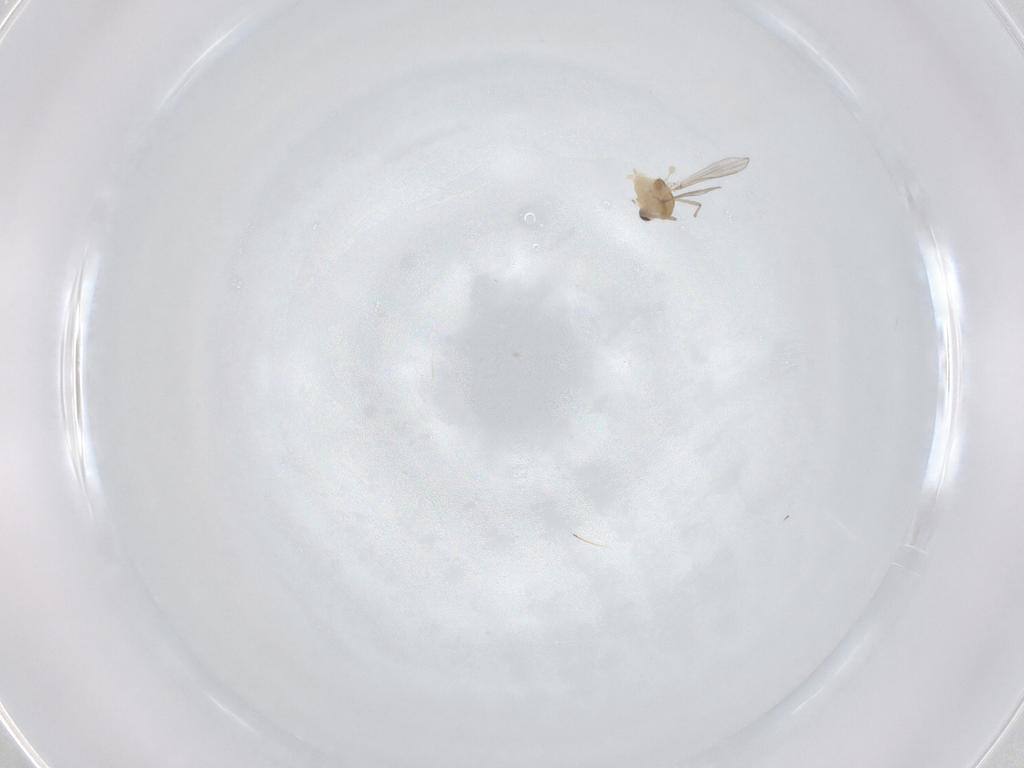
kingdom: Animalia
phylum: Arthropoda
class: Insecta
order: Diptera
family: Chironomidae
